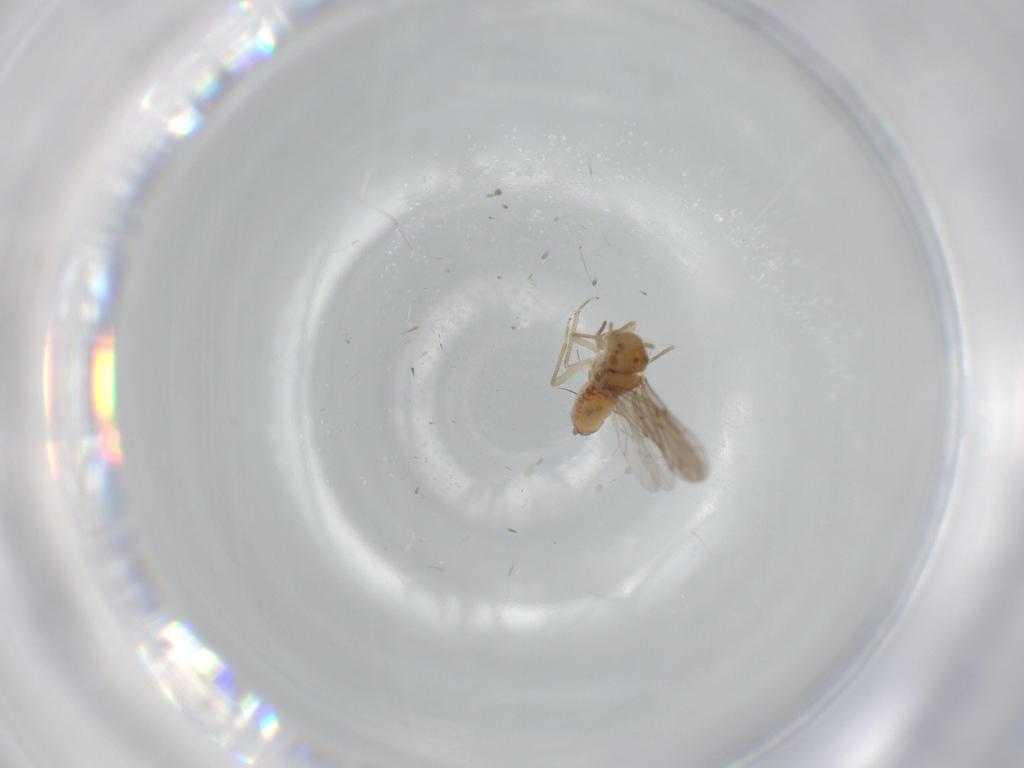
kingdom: Animalia
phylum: Arthropoda
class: Insecta
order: Psocodea
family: Ectopsocidae
